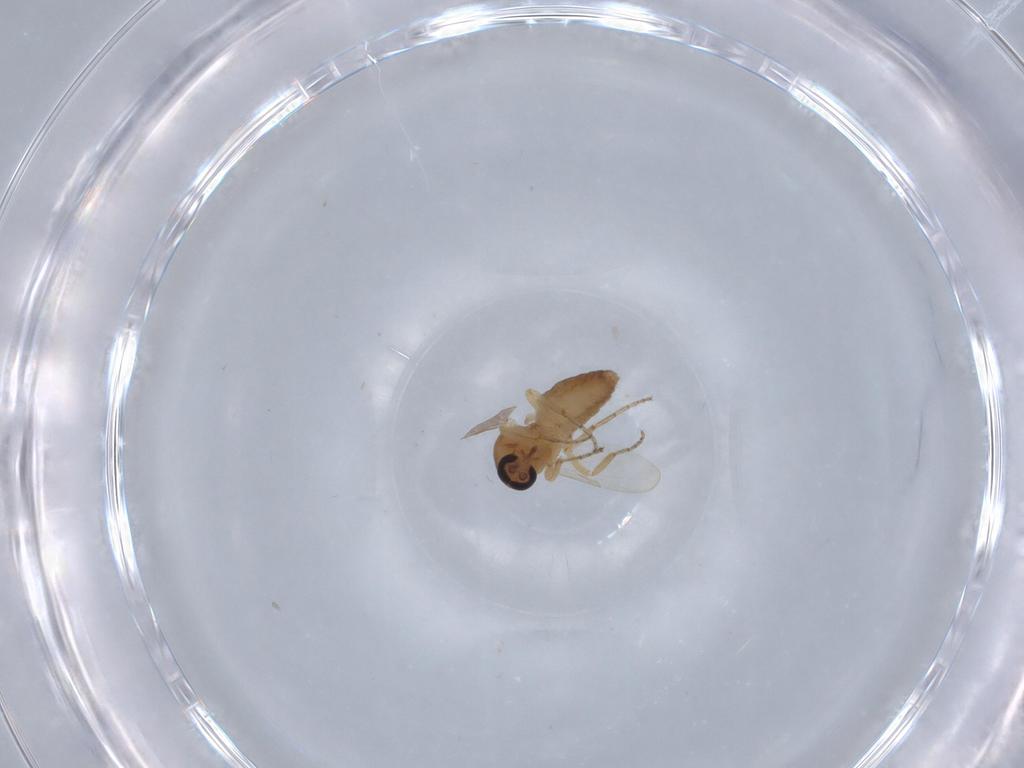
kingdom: Animalia
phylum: Arthropoda
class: Insecta
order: Diptera
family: Ceratopogonidae
